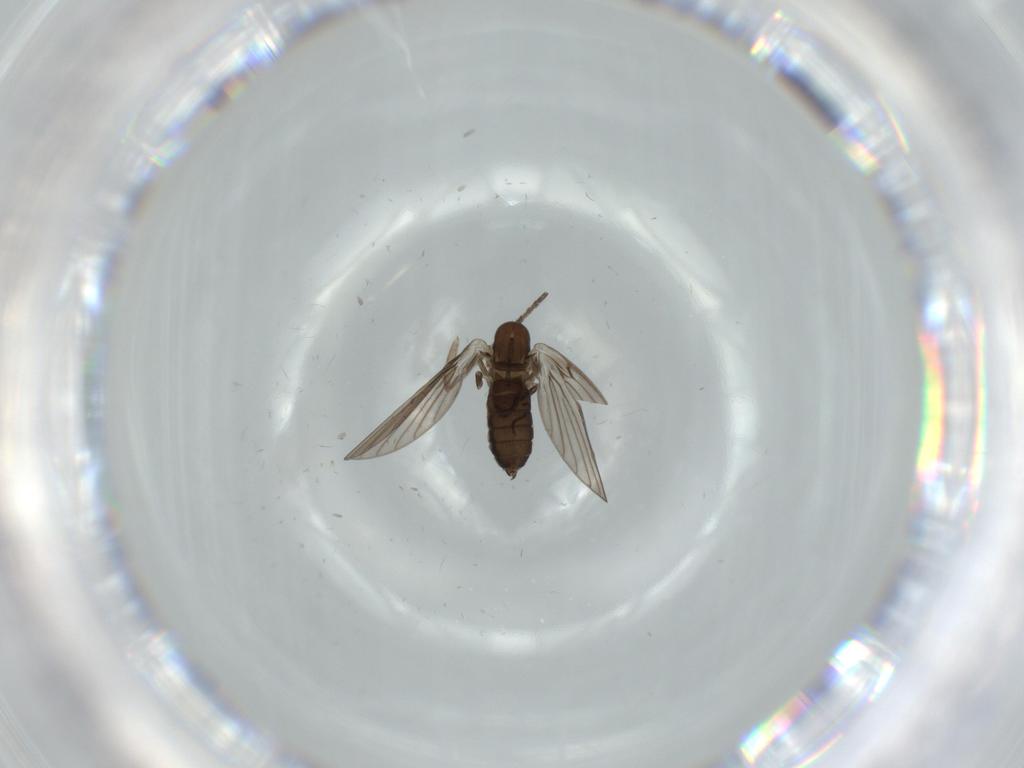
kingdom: Animalia
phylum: Arthropoda
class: Insecta
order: Diptera
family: Psychodidae
